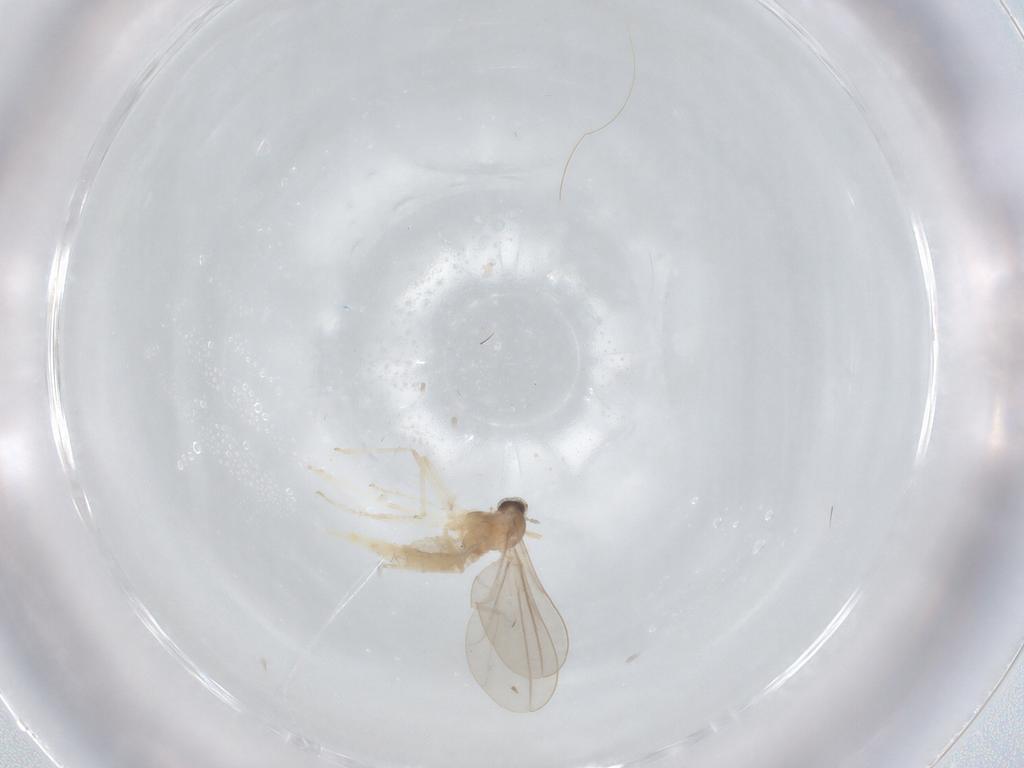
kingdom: Animalia
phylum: Arthropoda
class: Insecta
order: Diptera
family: Cecidomyiidae
